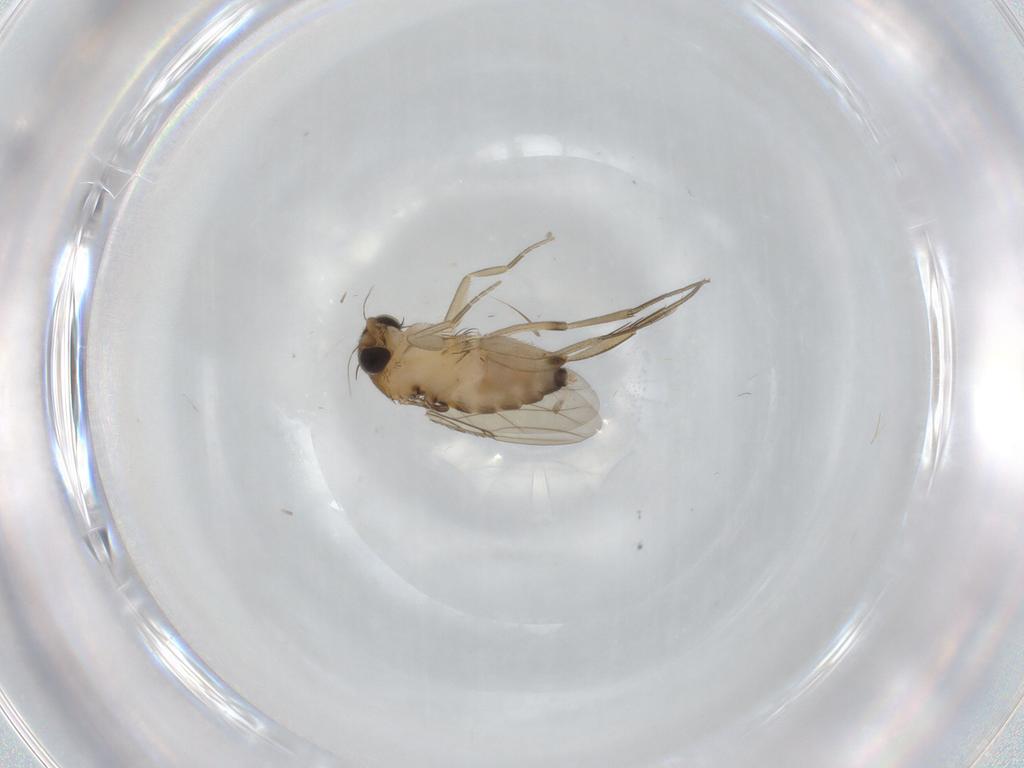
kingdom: Animalia
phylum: Arthropoda
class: Insecta
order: Diptera
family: Phoridae
